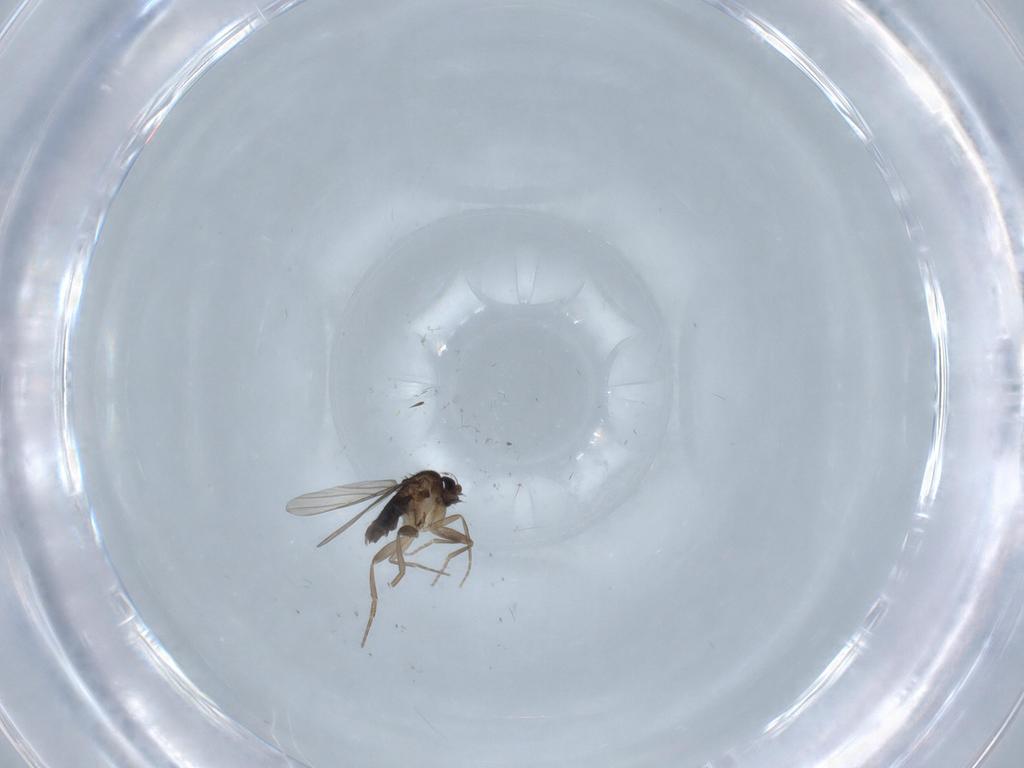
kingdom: Animalia
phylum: Arthropoda
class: Insecta
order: Diptera
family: Phoridae
